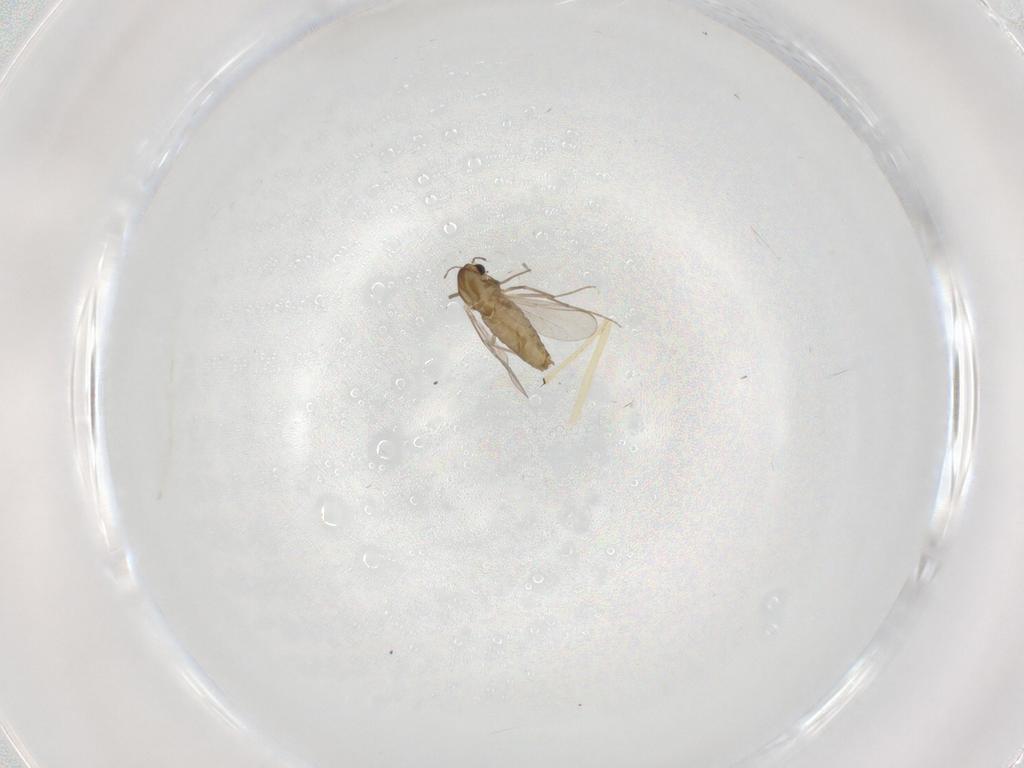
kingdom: Animalia
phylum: Arthropoda
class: Insecta
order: Diptera
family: Chironomidae
